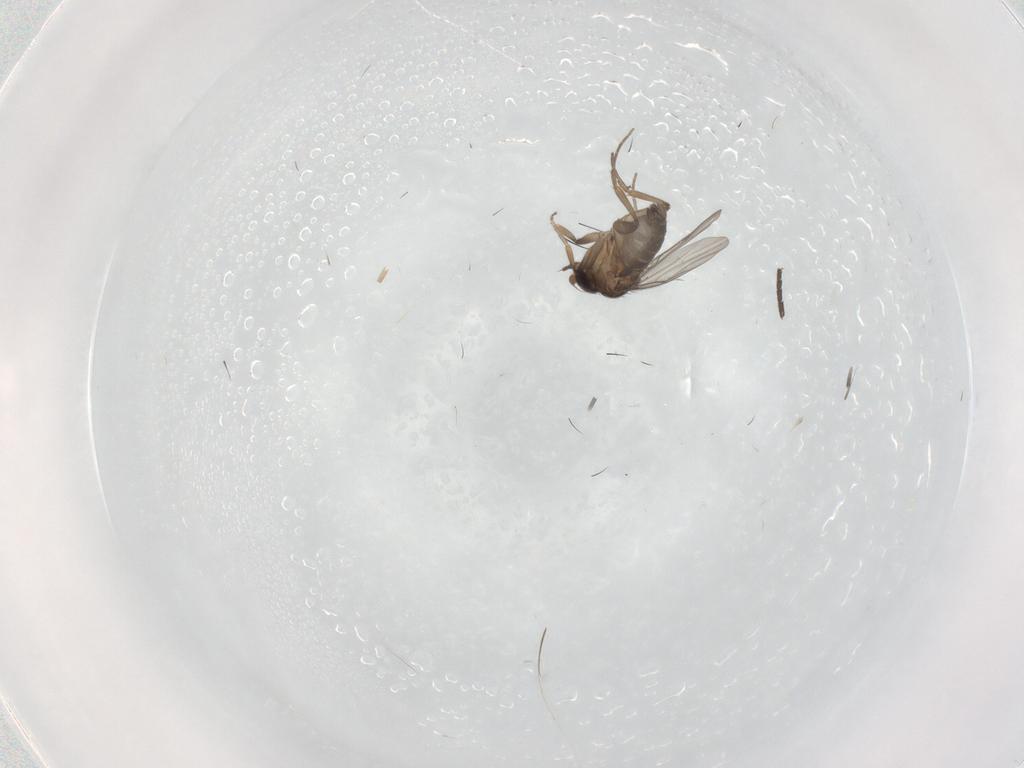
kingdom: Animalia
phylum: Arthropoda
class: Insecta
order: Diptera
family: Phoridae
